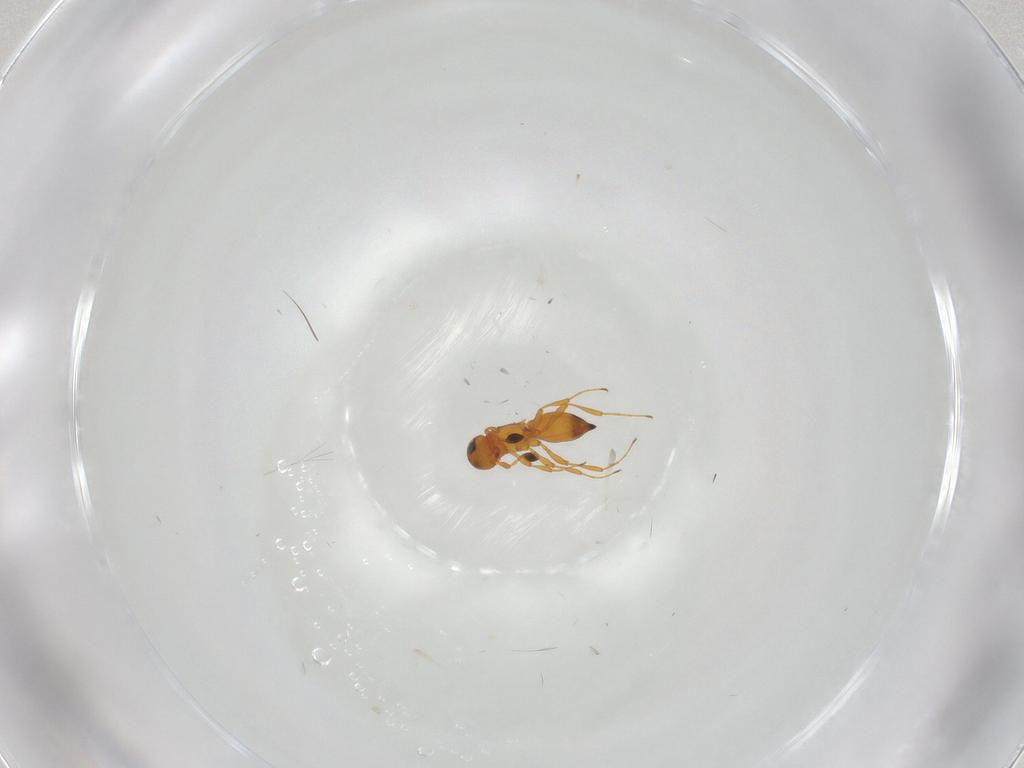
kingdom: Animalia
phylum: Arthropoda
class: Insecta
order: Hymenoptera
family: Platygastridae
